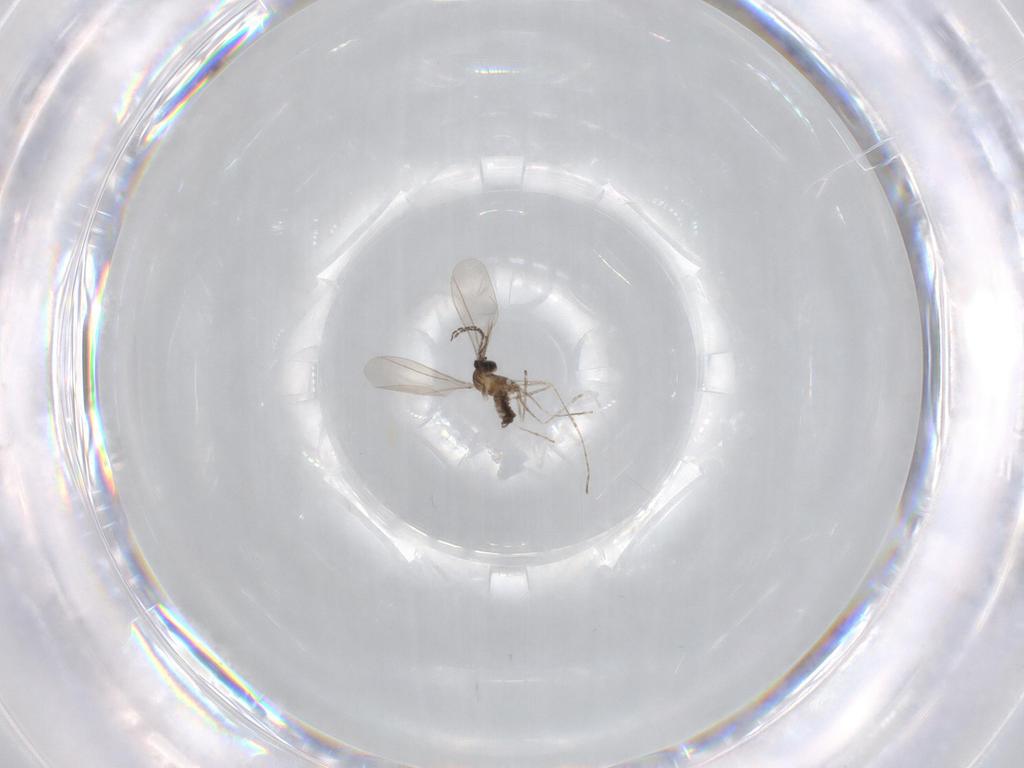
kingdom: Animalia
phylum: Arthropoda
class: Insecta
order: Diptera
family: Cecidomyiidae
